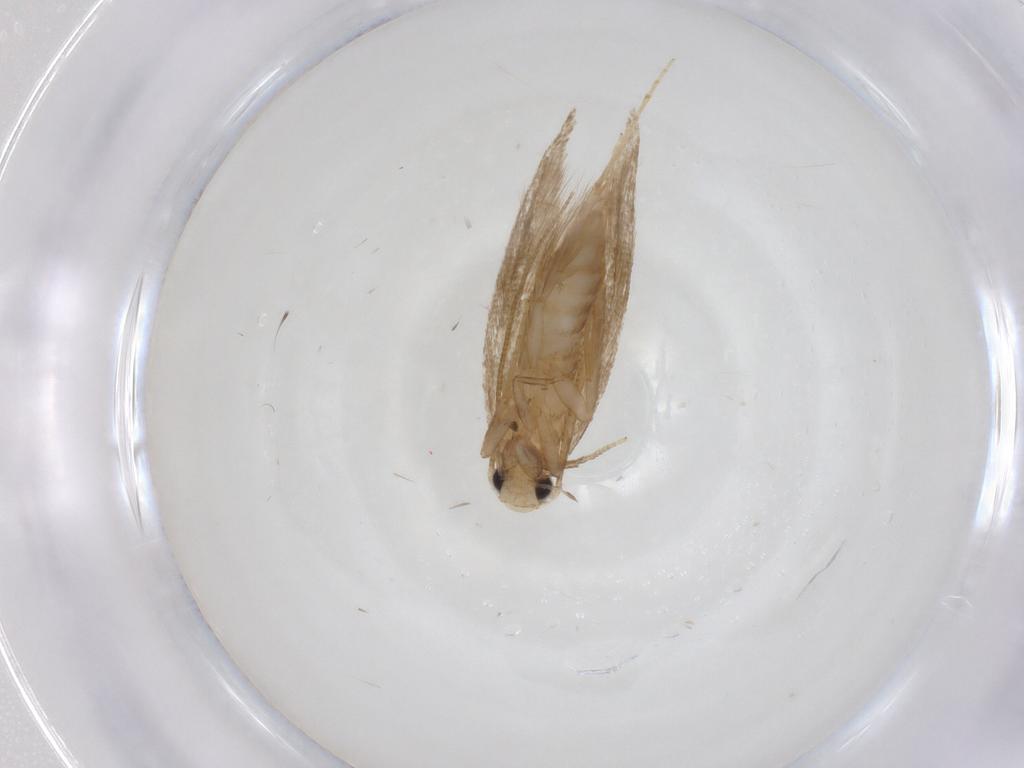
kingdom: Animalia
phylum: Arthropoda
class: Insecta
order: Lepidoptera
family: Tineidae
